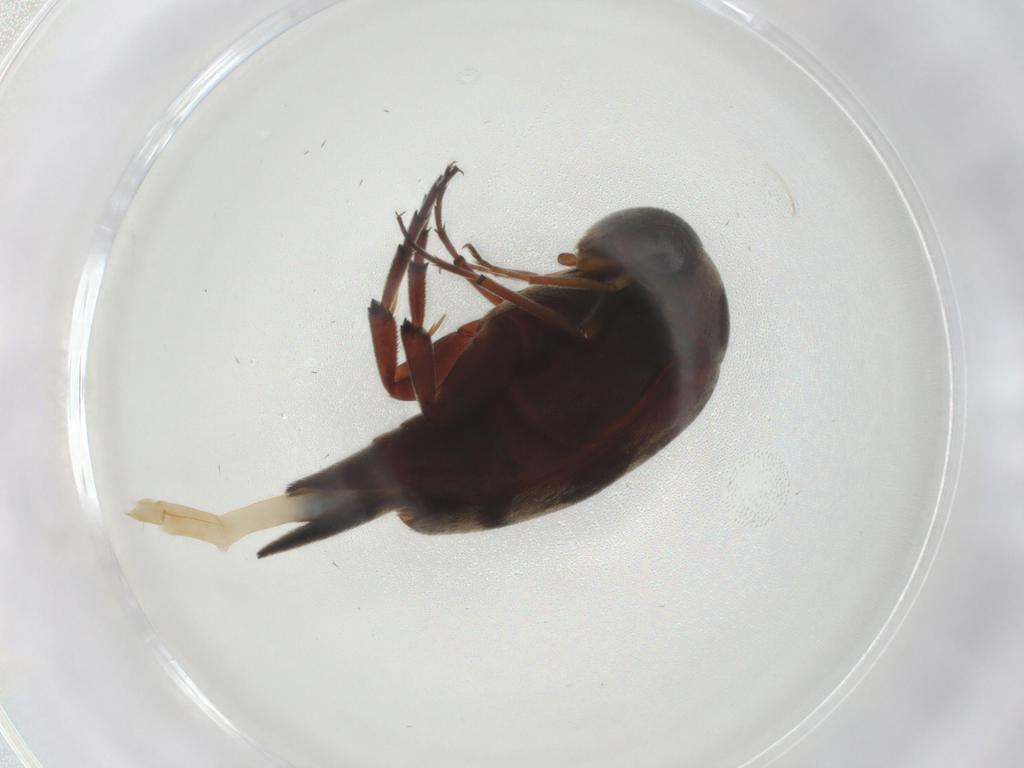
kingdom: Animalia
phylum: Arthropoda
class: Insecta
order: Coleoptera
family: Mordellidae
